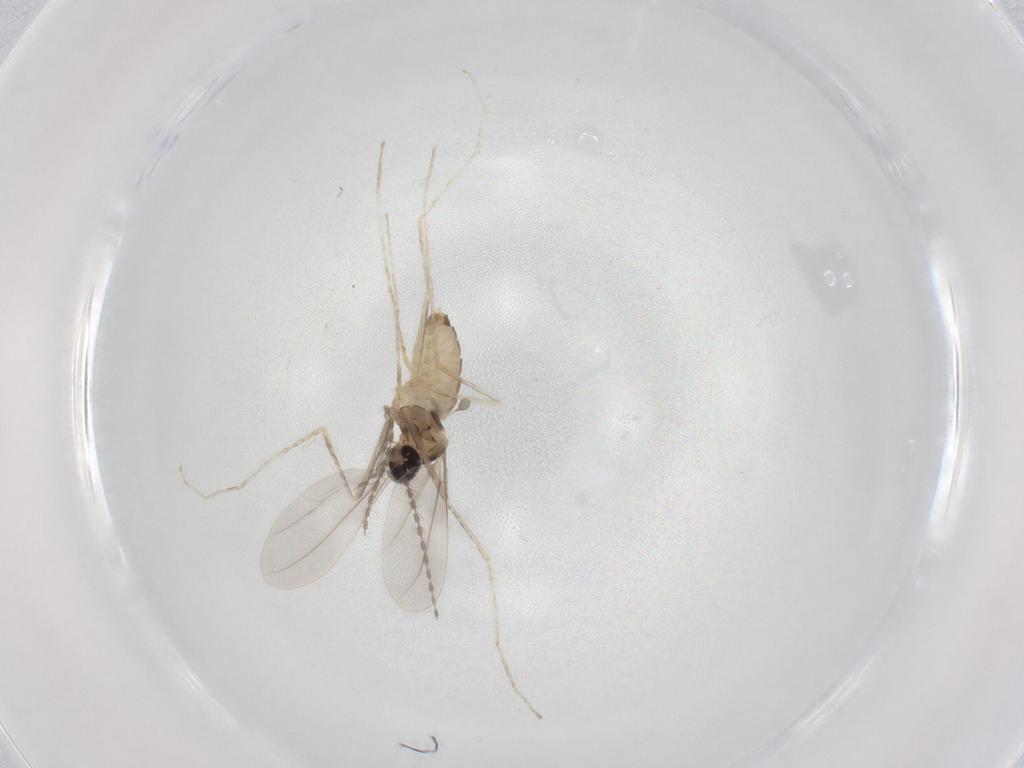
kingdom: Animalia
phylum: Arthropoda
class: Insecta
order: Diptera
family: Cecidomyiidae
